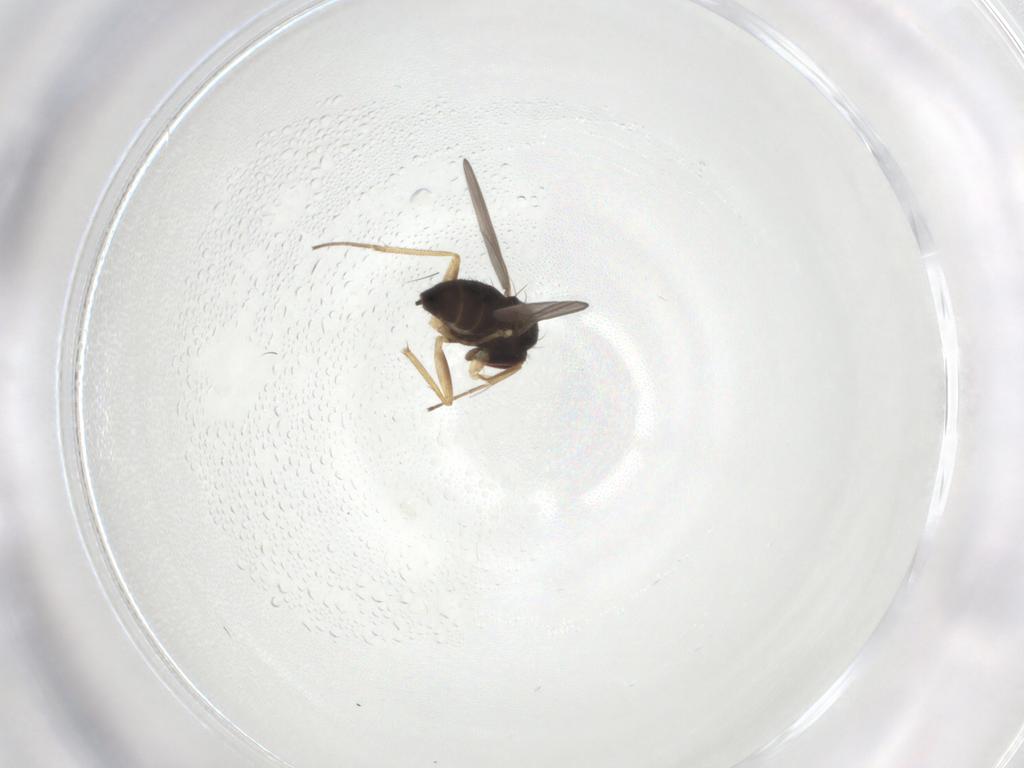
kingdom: Animalia
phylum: Arthropoda
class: Insecta
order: Diptera
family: Dolichopodidae
